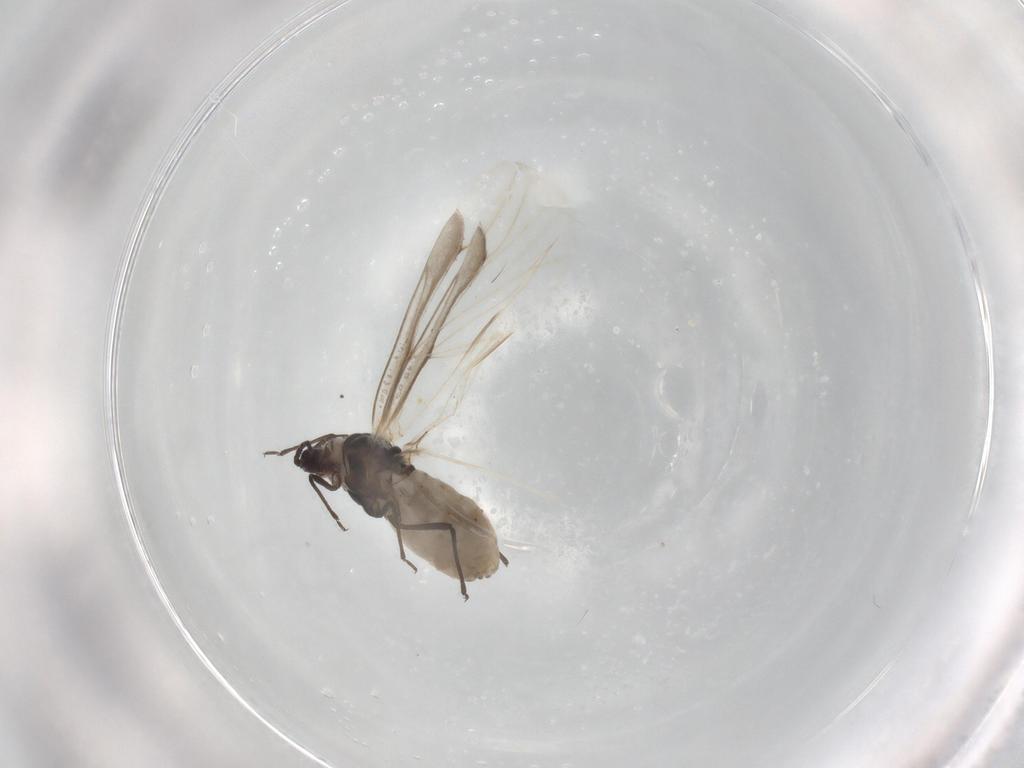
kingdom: Animalia
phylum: Arthropoda
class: Insecta
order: Hemiptera
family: Aphididae
